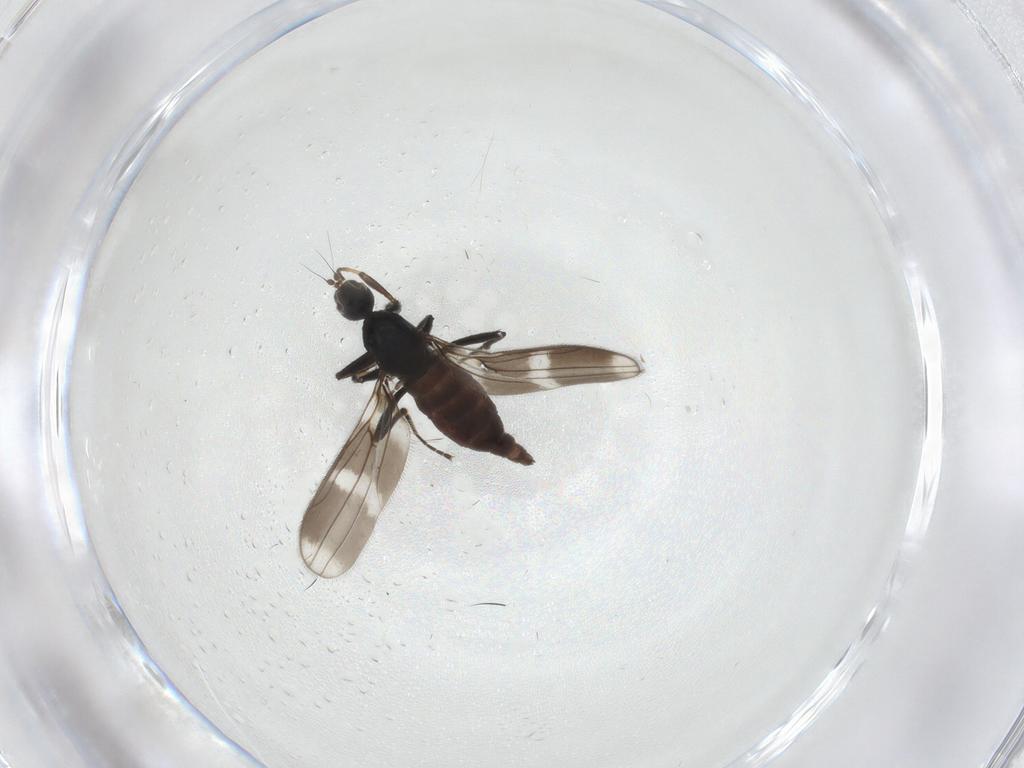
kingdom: Animalia
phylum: Arthropoda
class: Insecta
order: Diptera
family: Hybotidae
